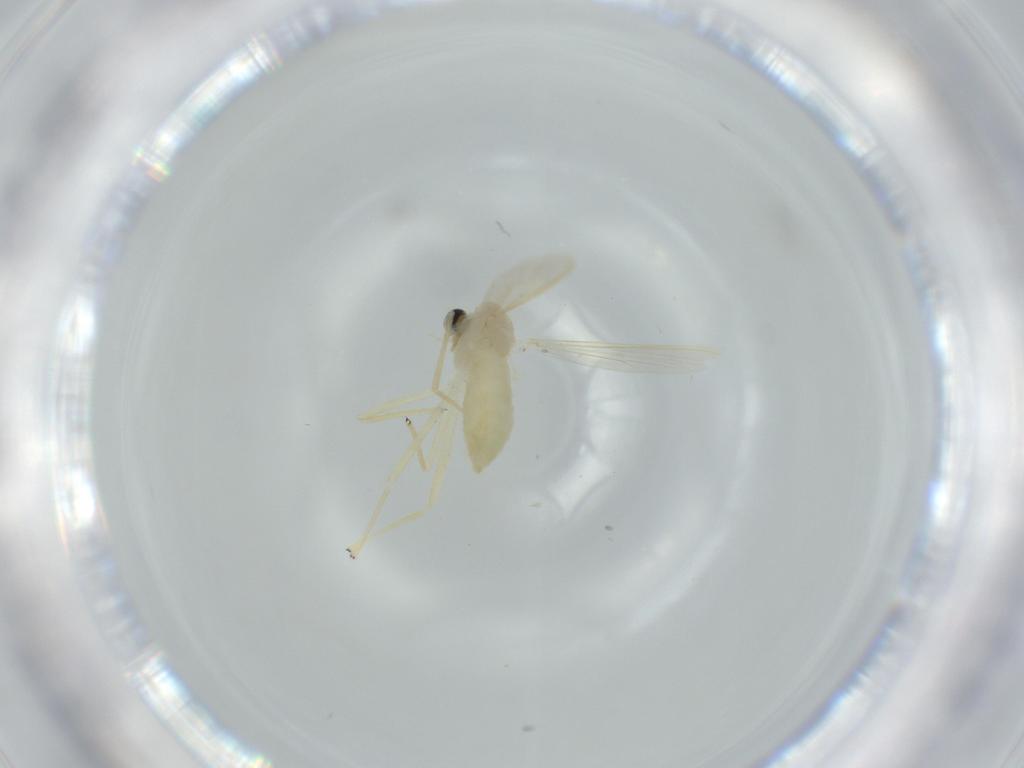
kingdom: Animalia
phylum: Arthropoda
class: Insecta
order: Diptera
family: Chironomidae
